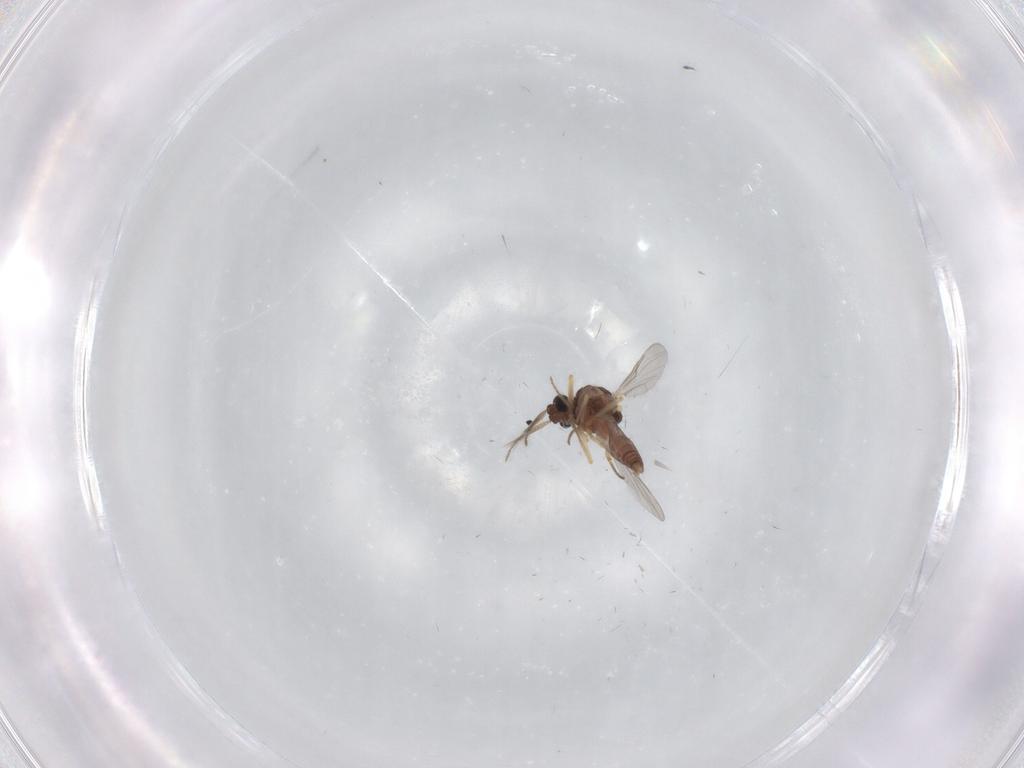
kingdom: Animalia
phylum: Arthropoda
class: Insecta
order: Diptera
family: Ceratopogonidae
